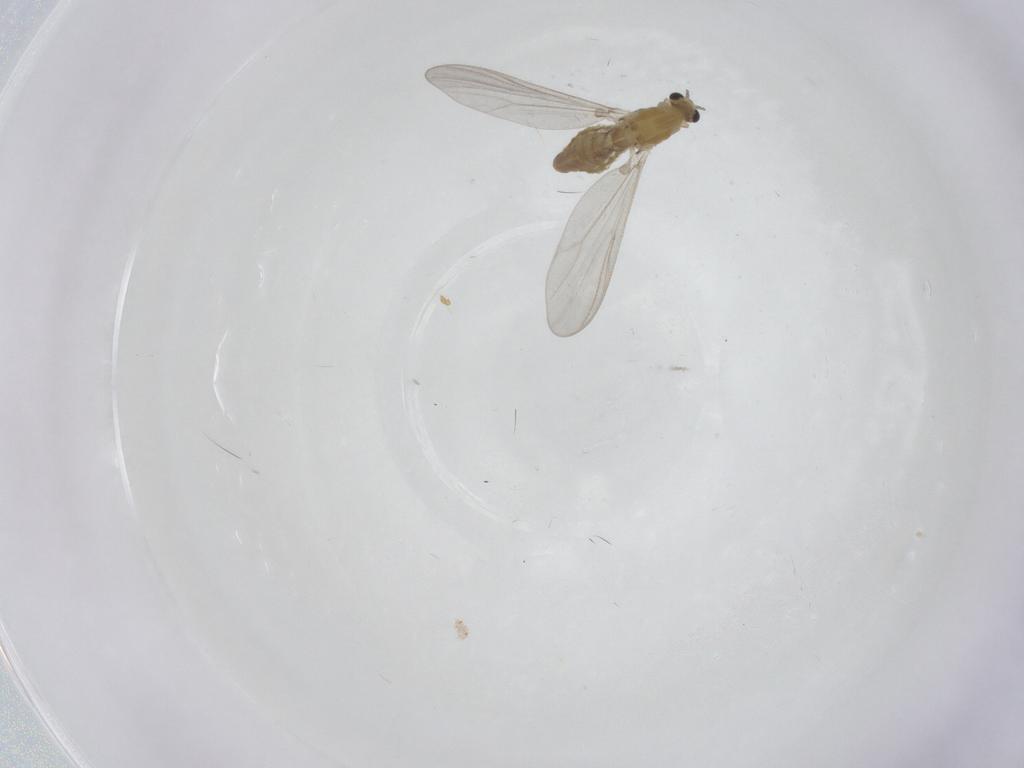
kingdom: Animalia
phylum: Arthropoda
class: Insecta
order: Diptera
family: Chironomidae
